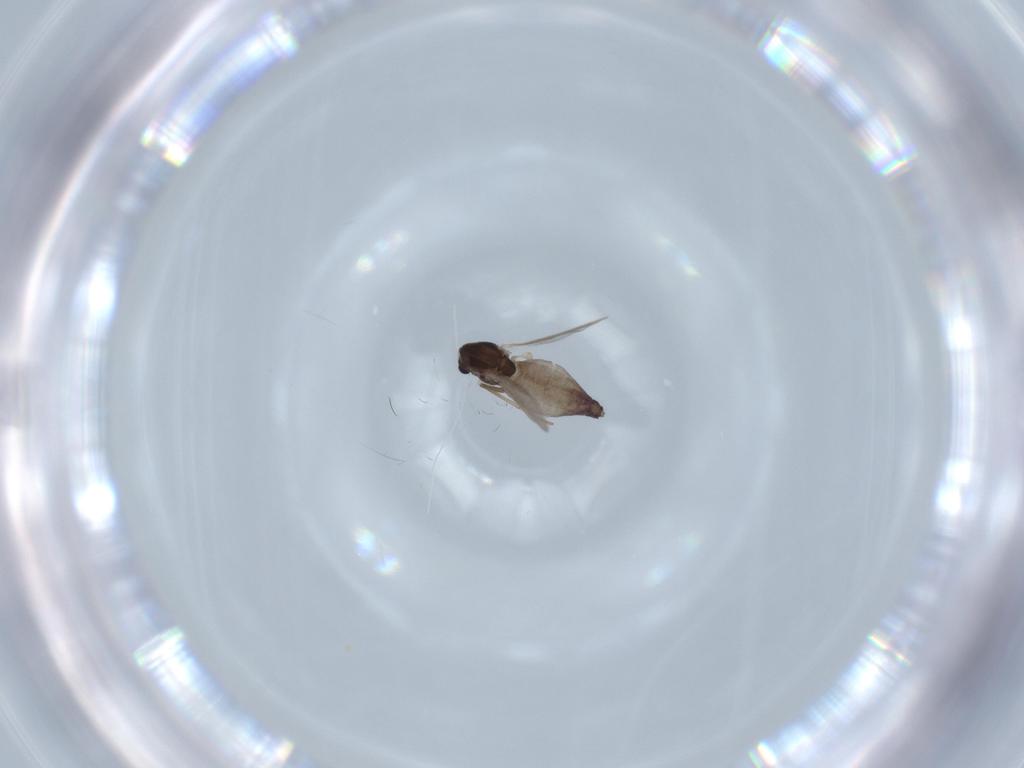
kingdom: Animalia
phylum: Arthropoda
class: Insecta
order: Diptera
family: Chironomidae
